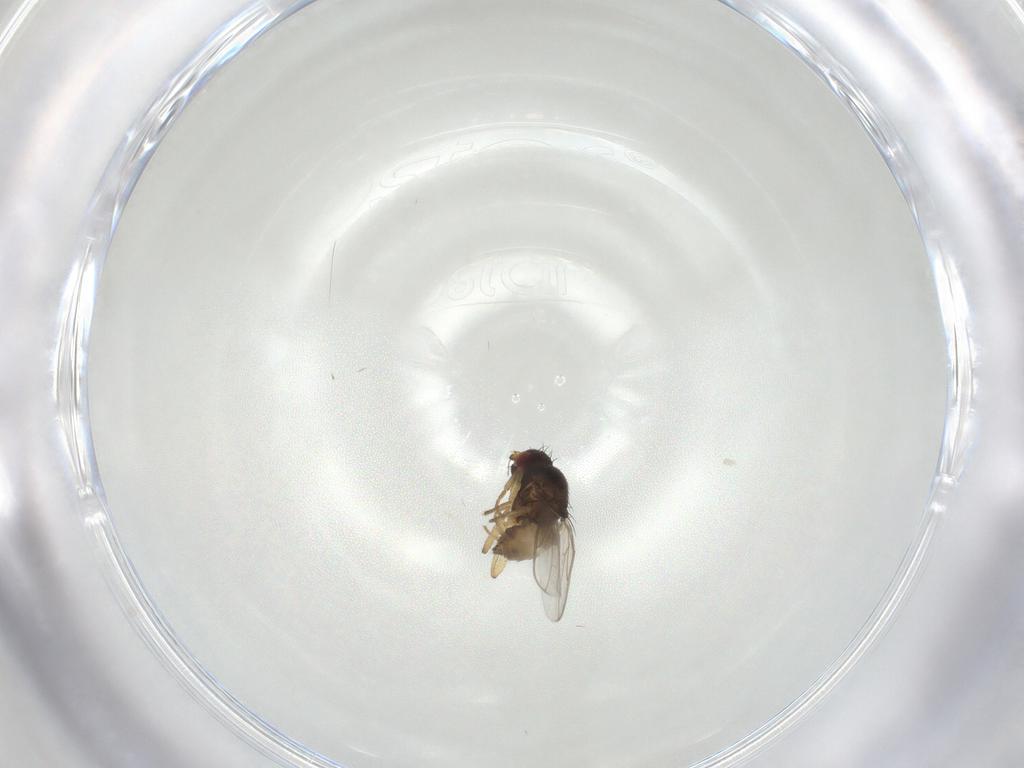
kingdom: Animalia
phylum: Arthropoda
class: Insecta
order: Diptera
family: Sphaeroceridae
